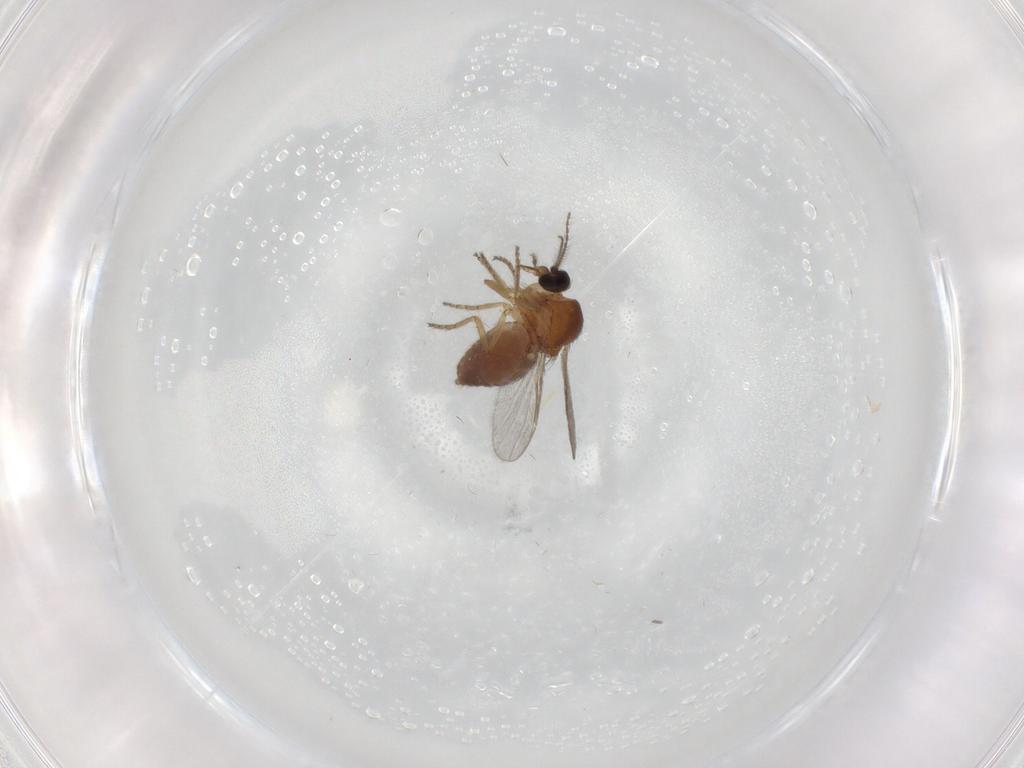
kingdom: Animalia
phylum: Arthropoda
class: Insecta
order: Diptera
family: Ceratopogonidae
